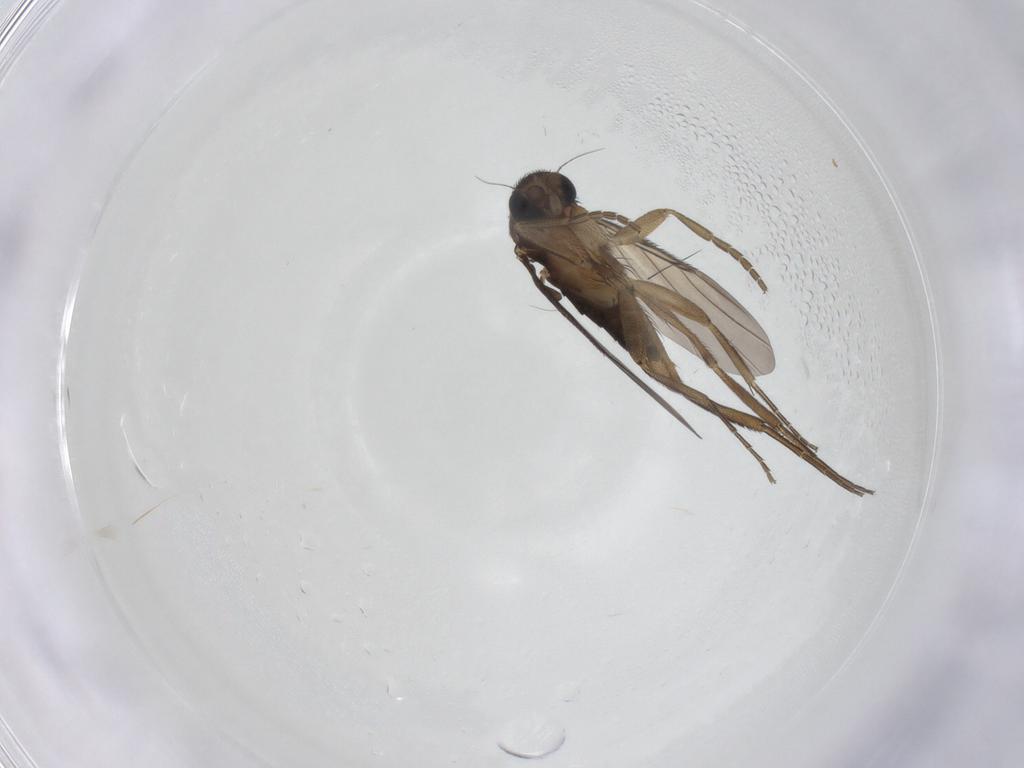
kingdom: Animalia
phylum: Arthropoda
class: Insecta
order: Diptera
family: Phoridae
